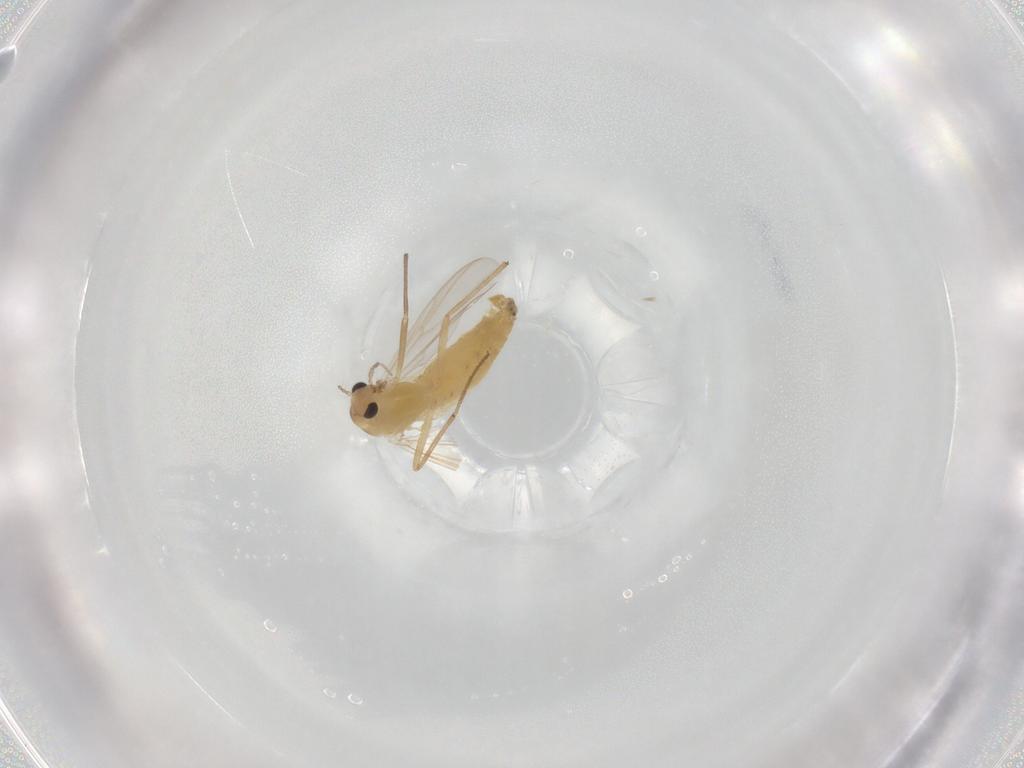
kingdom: Animalia
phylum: Arthropoda
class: Insecta
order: Diptera
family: Chironomidae
